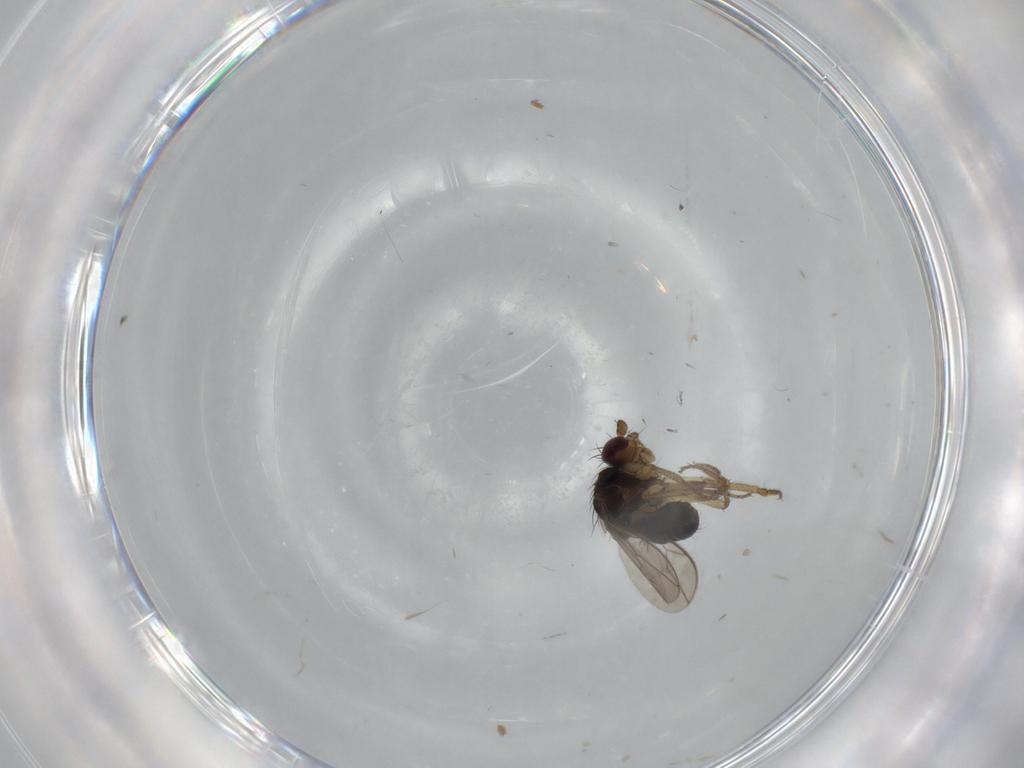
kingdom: Animalia
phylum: Arthropoda
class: Insecta
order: Diptera
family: Sphaeroceridae
